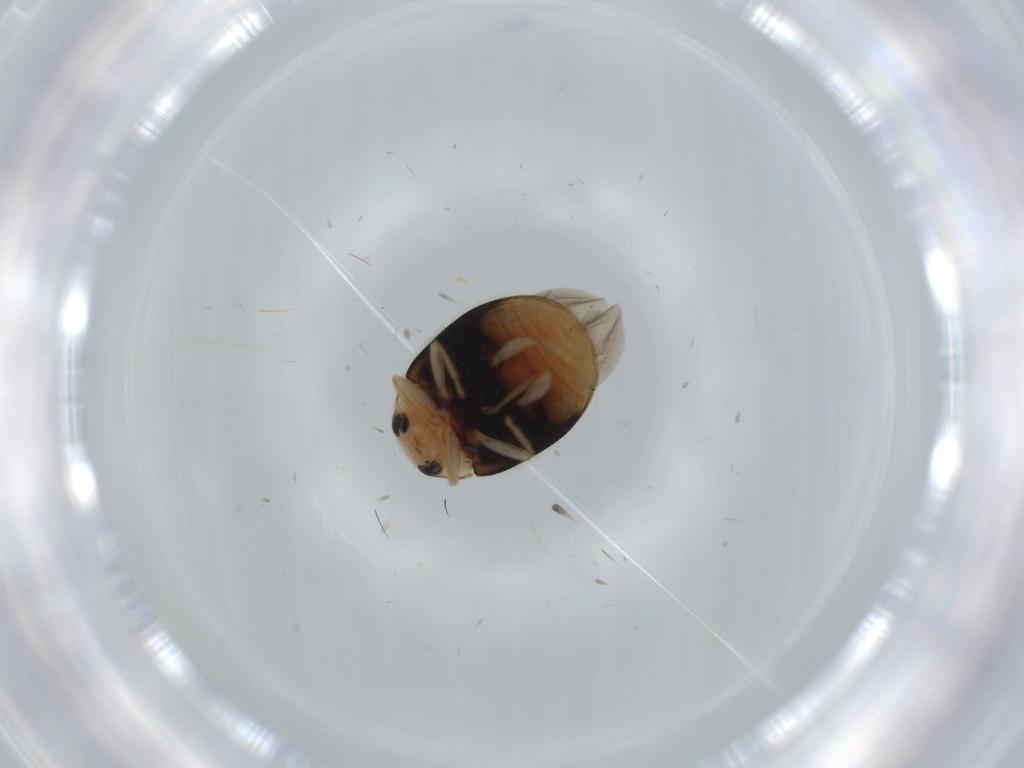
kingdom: Animalia
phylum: Arthropoda
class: Insecta
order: Coleoptera
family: Coccinellidae
